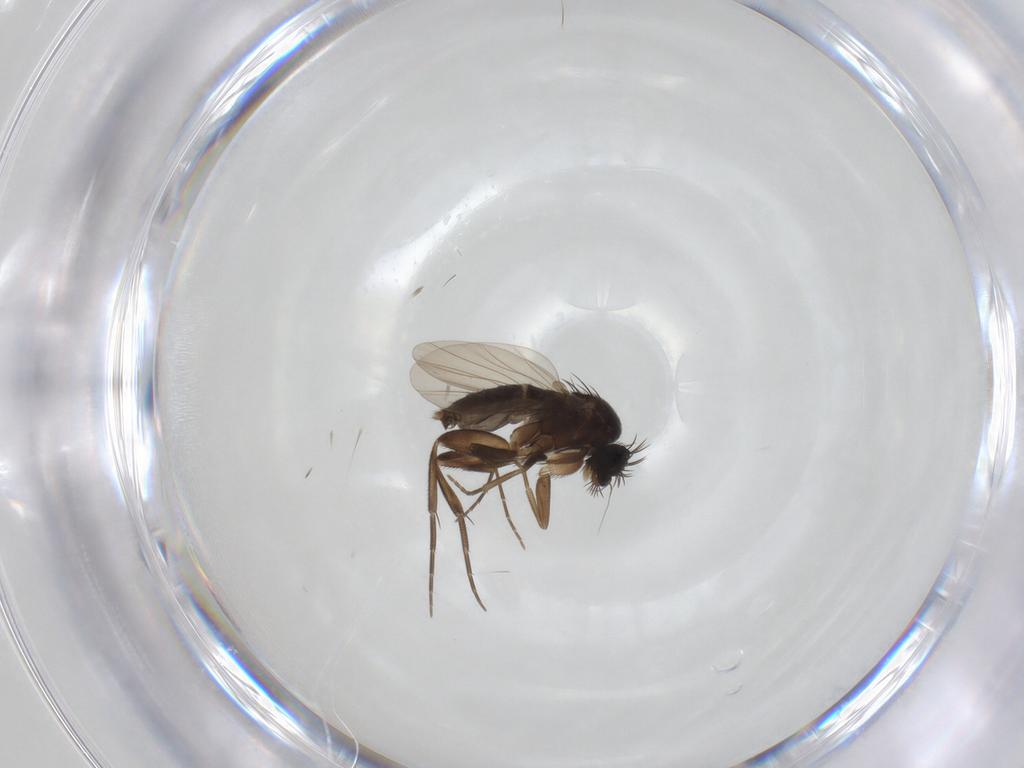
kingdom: Animalia
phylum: Arthropoda
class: Insecta
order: Diptera
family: Phoridae
